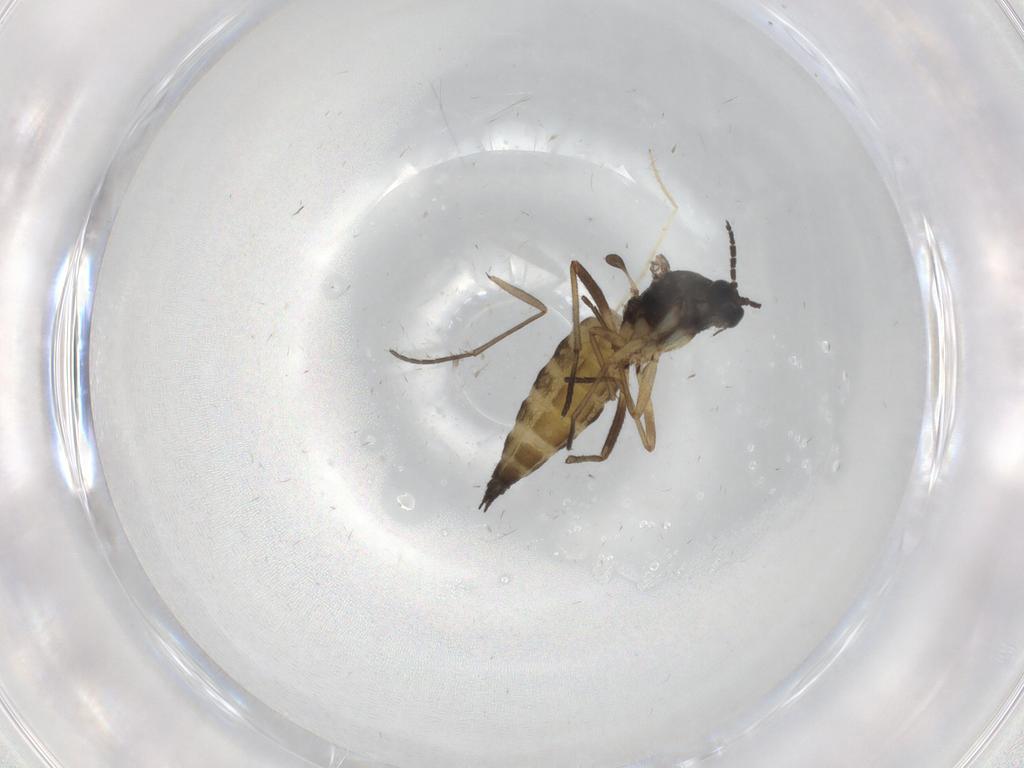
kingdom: Animalia
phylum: Arthropoda
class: Insecta
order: Diptera
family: Sciaridae
